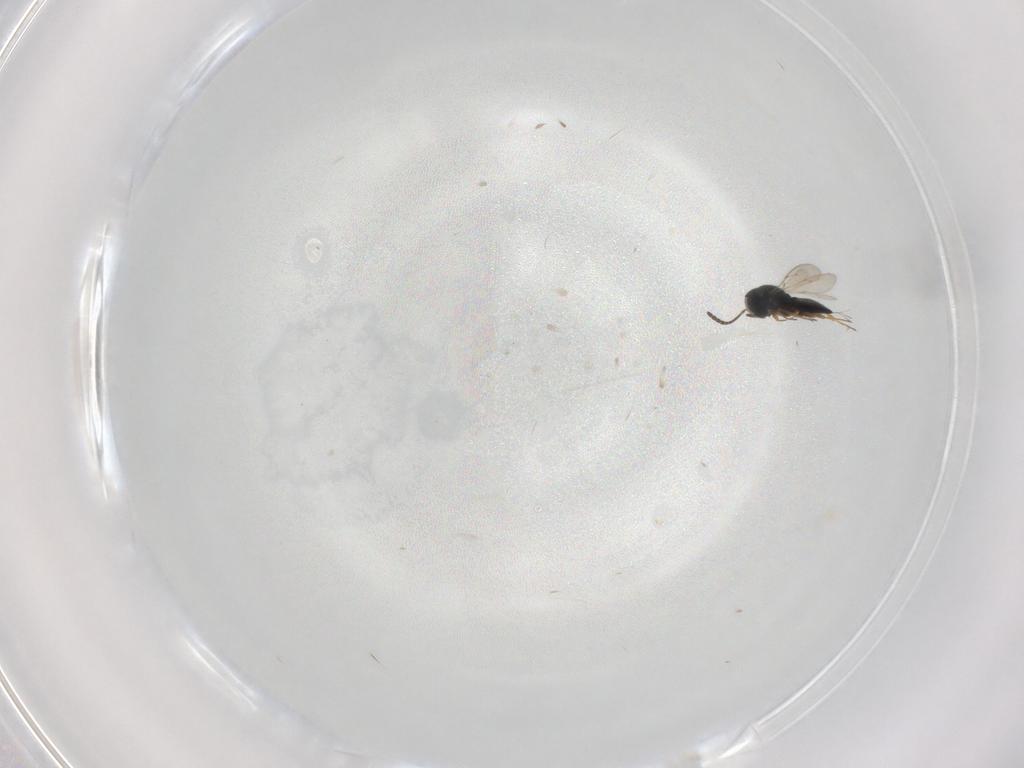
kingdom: Animalia
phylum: Arthropoda
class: Insecta
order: Hymenoptera
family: Scelionidae
